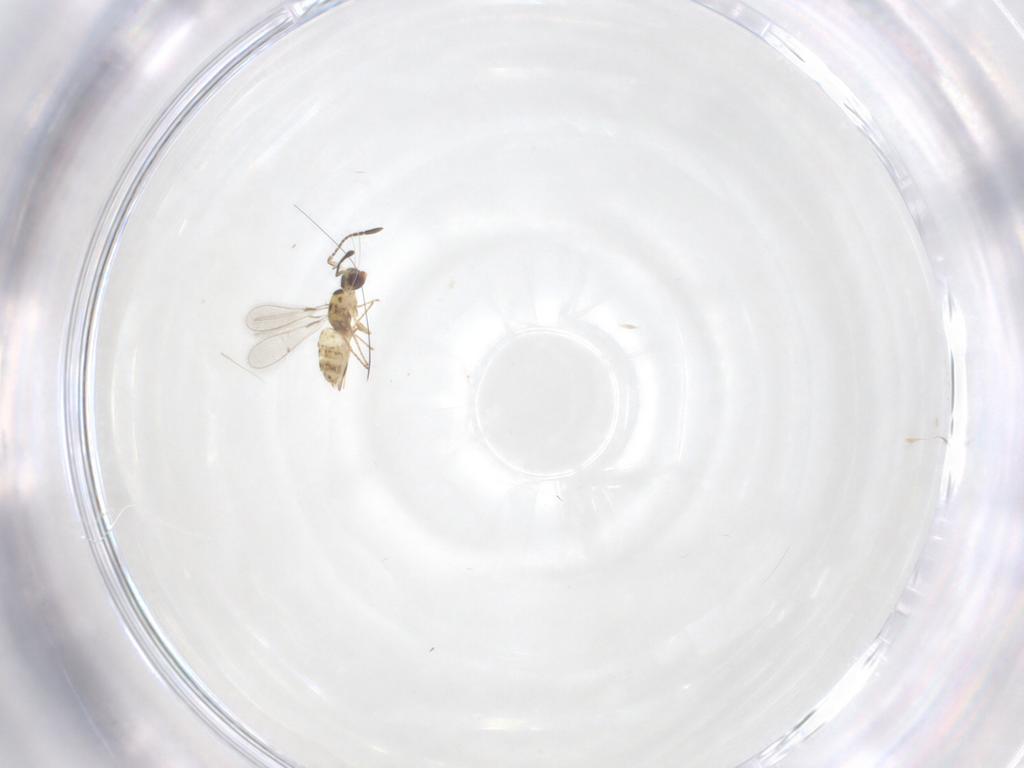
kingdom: Animalia
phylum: Arthropoda
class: Insecta
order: Hymenoptera
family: Mymaridae
